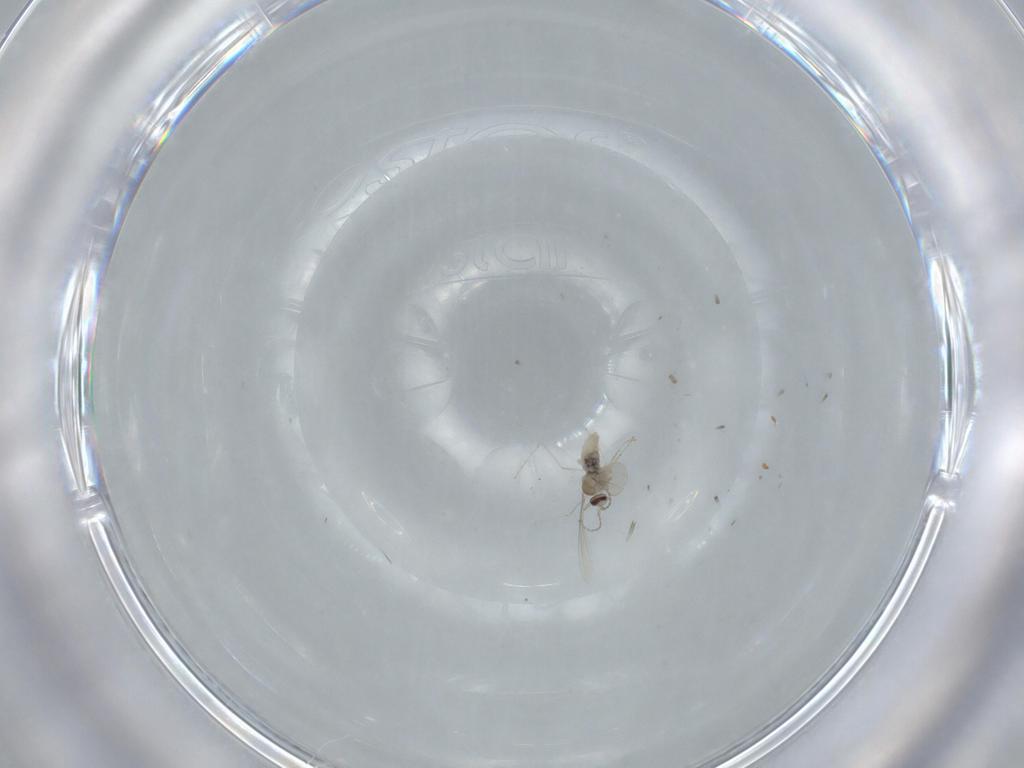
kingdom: Animalia
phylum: Arthropoda
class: Insecta
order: Diptera
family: Cecidomyiidae
